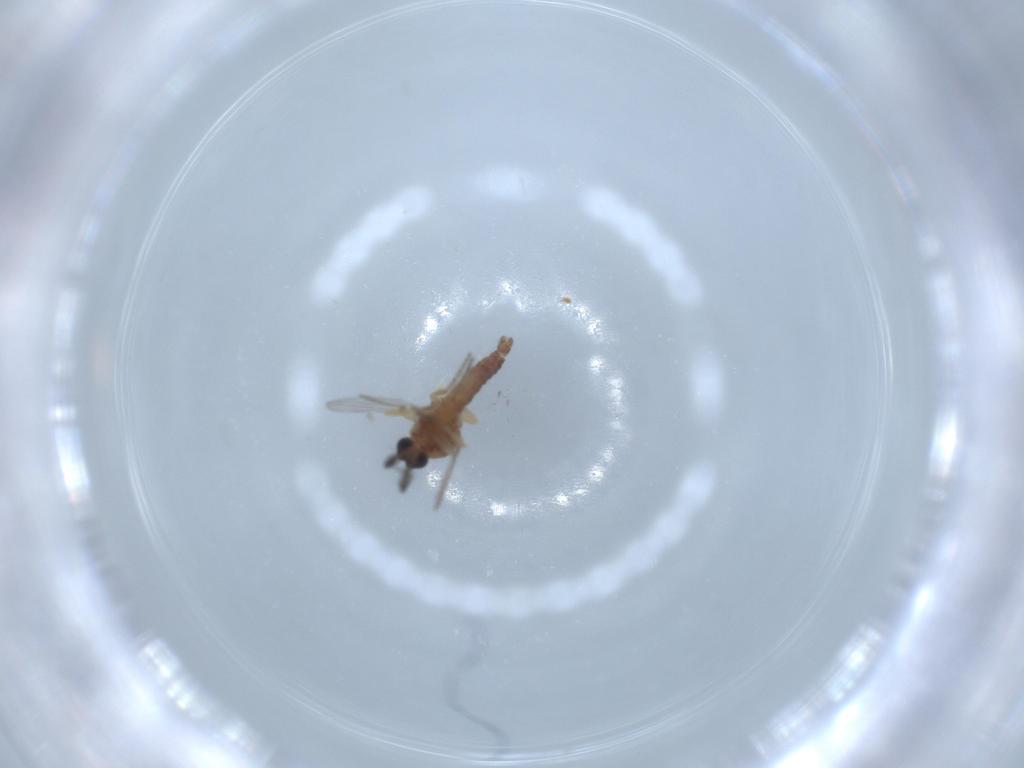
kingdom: Animalia
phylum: Arthropoda
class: Insecta
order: Diptera
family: Ceratopogonidae
